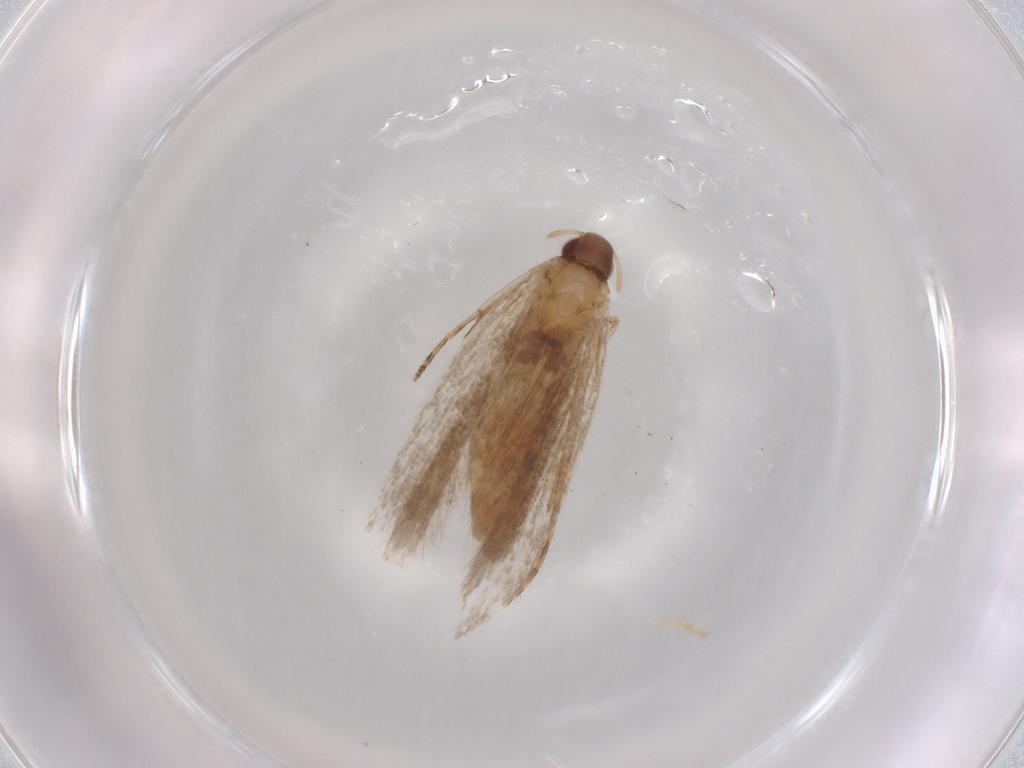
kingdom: Animalia
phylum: Arthropoda
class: Insecta
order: Lepidoptera
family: Gelechiidae
